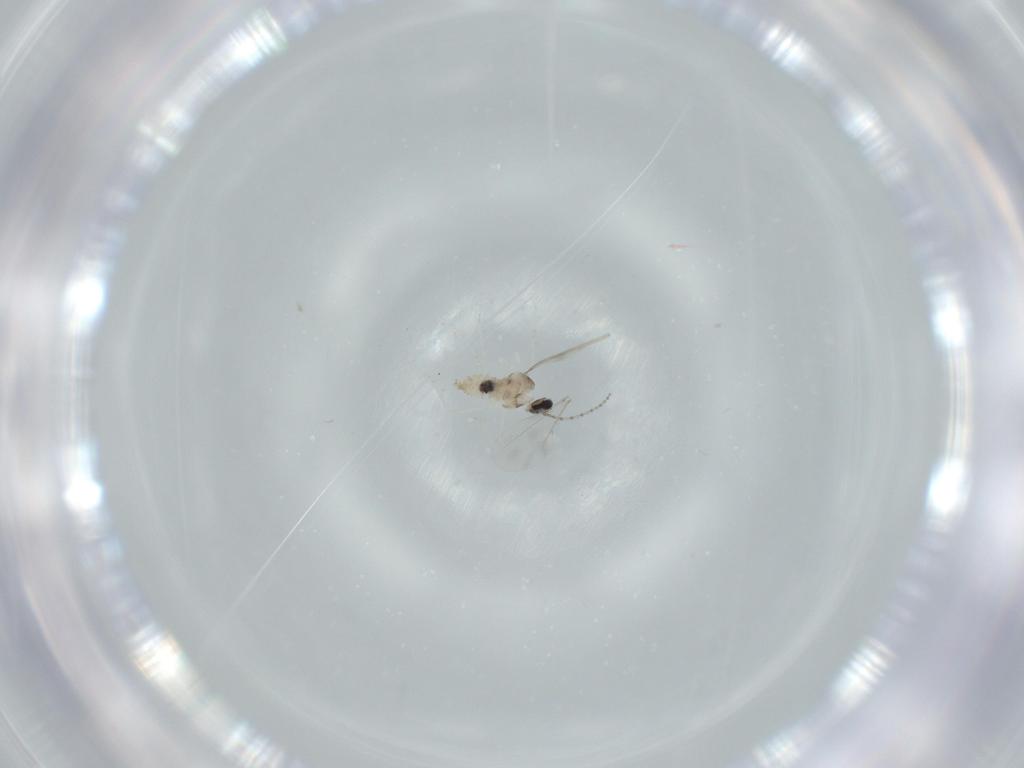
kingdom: Animalia
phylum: Arthropoda
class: Insecta
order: Diptera
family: Cecidomyiidae
